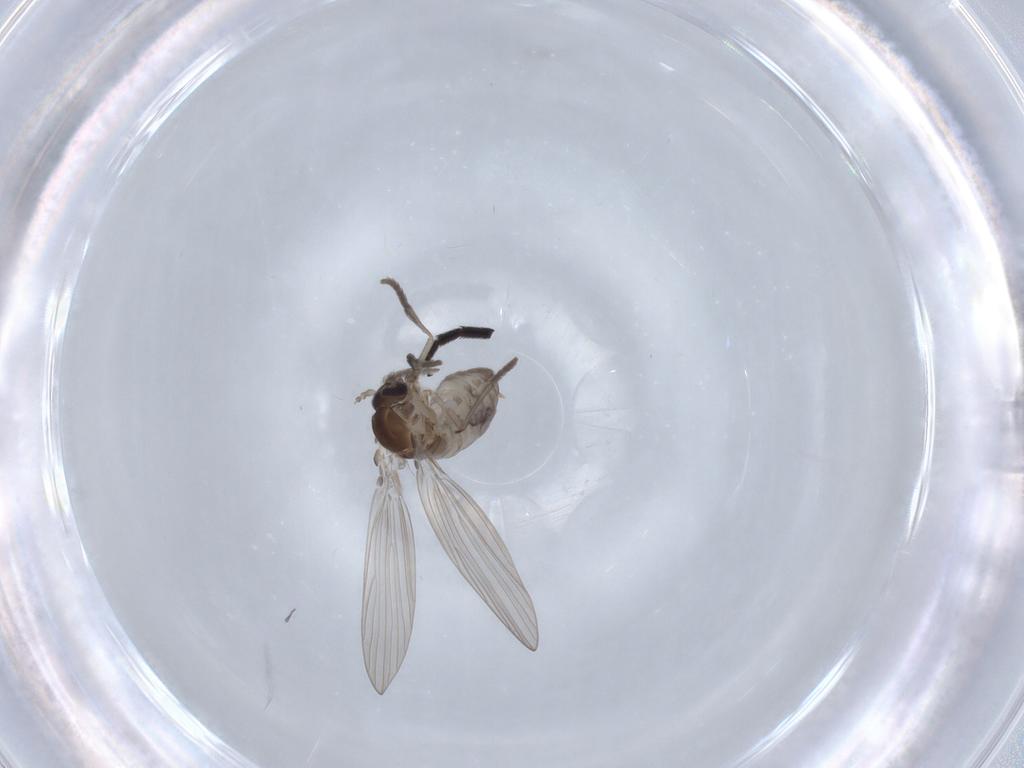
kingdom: Animalia
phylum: Arthropoda
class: Insecta
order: Diptera
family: Psychodidae
